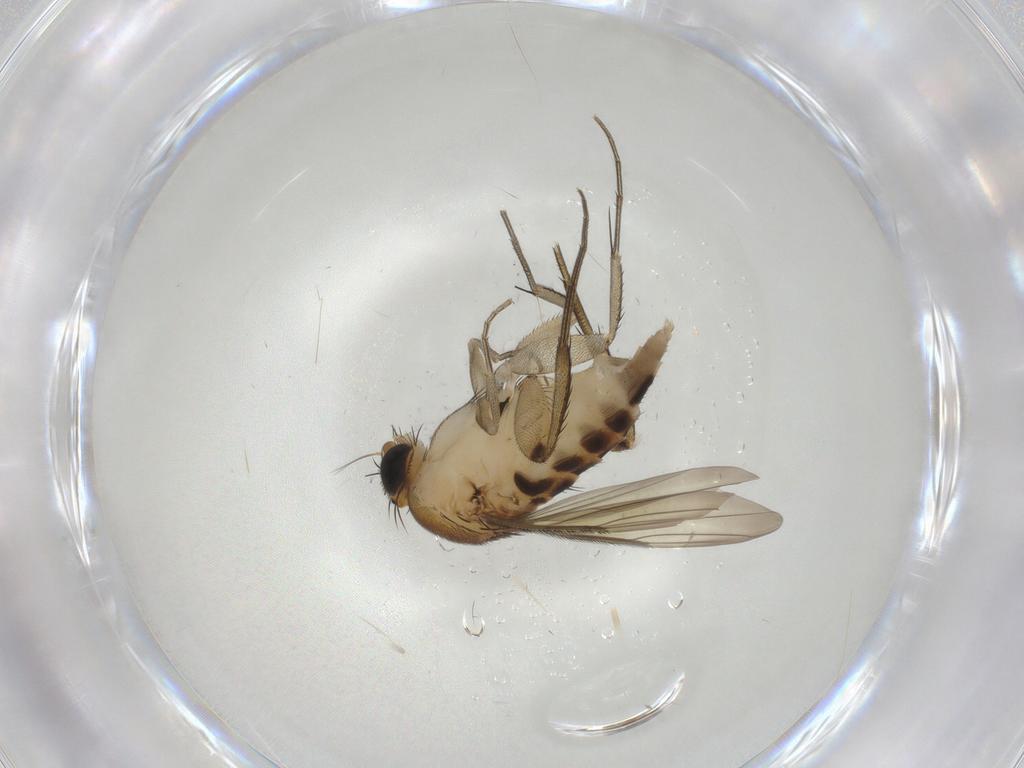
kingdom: Animalia
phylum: Arthropoda
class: Insecta
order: Diptera
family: Phoridae
